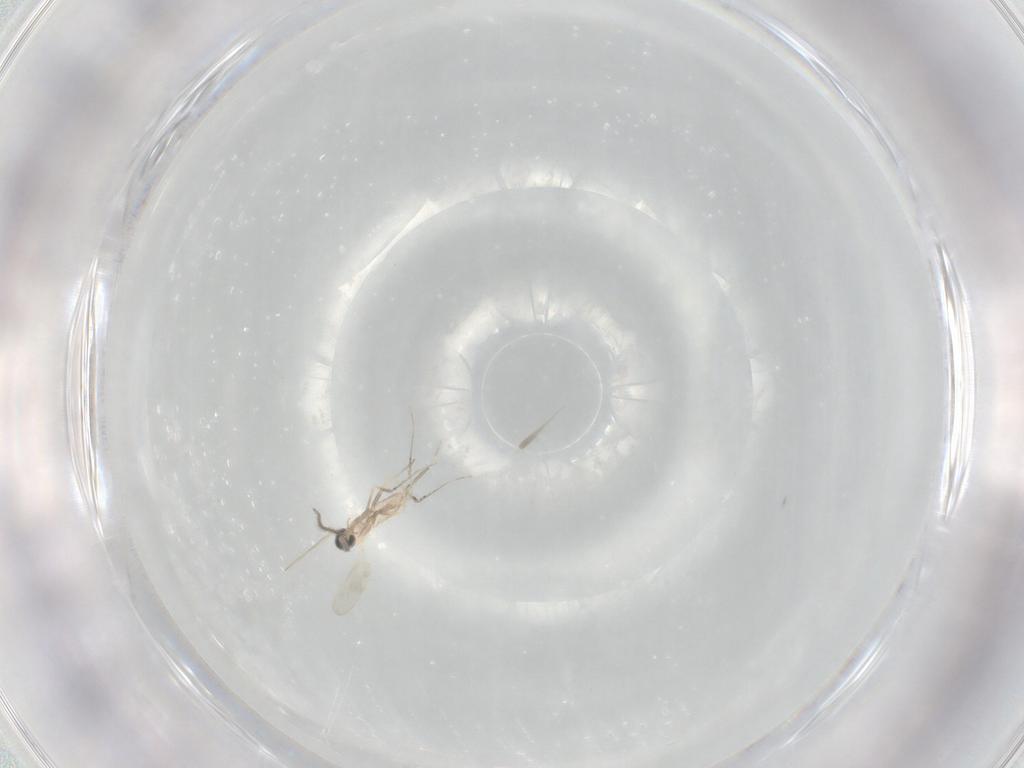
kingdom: Animalia
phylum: Arthropoda
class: Insecta
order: Diptera
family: Cecidomyiidae
